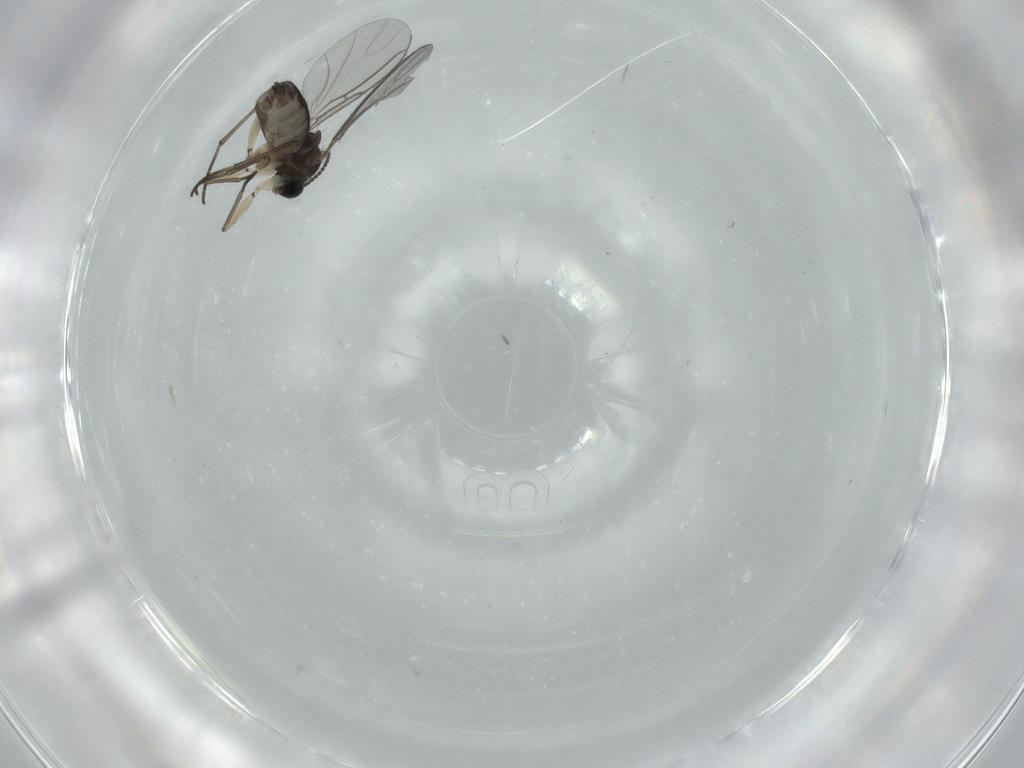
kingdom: Animalia
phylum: Arthropoda
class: Insecta
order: Diptera
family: Sciaridae
